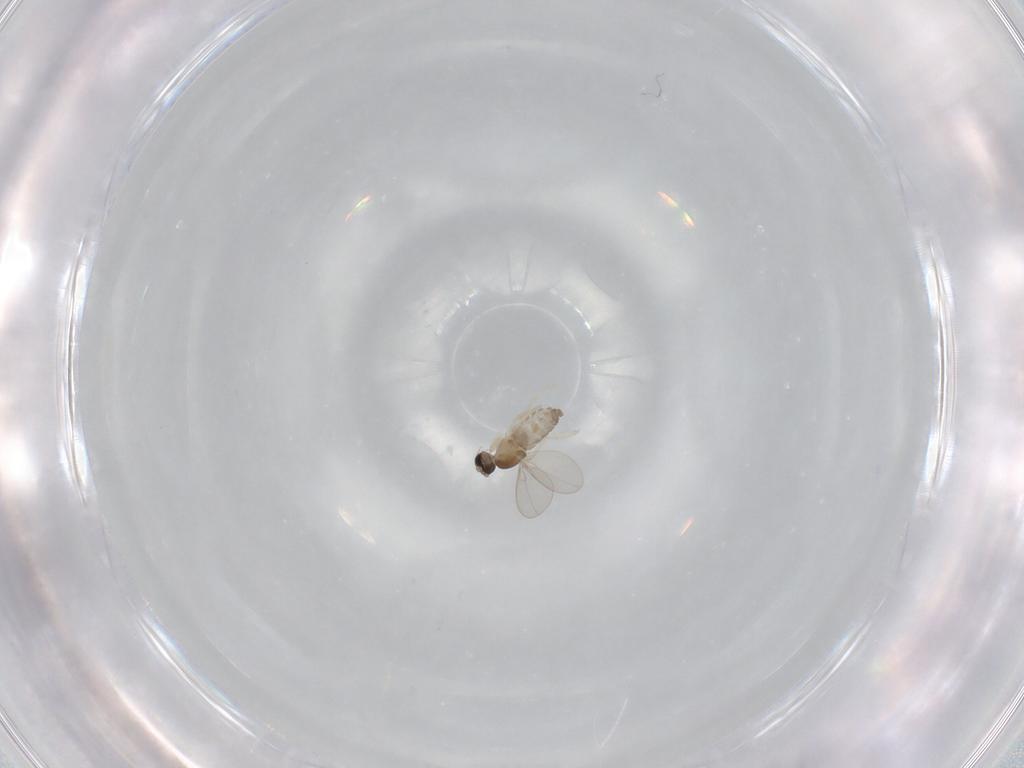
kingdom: Animalia
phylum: Arthropoda
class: Insecta
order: Diptera
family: Cecidomyiidae
